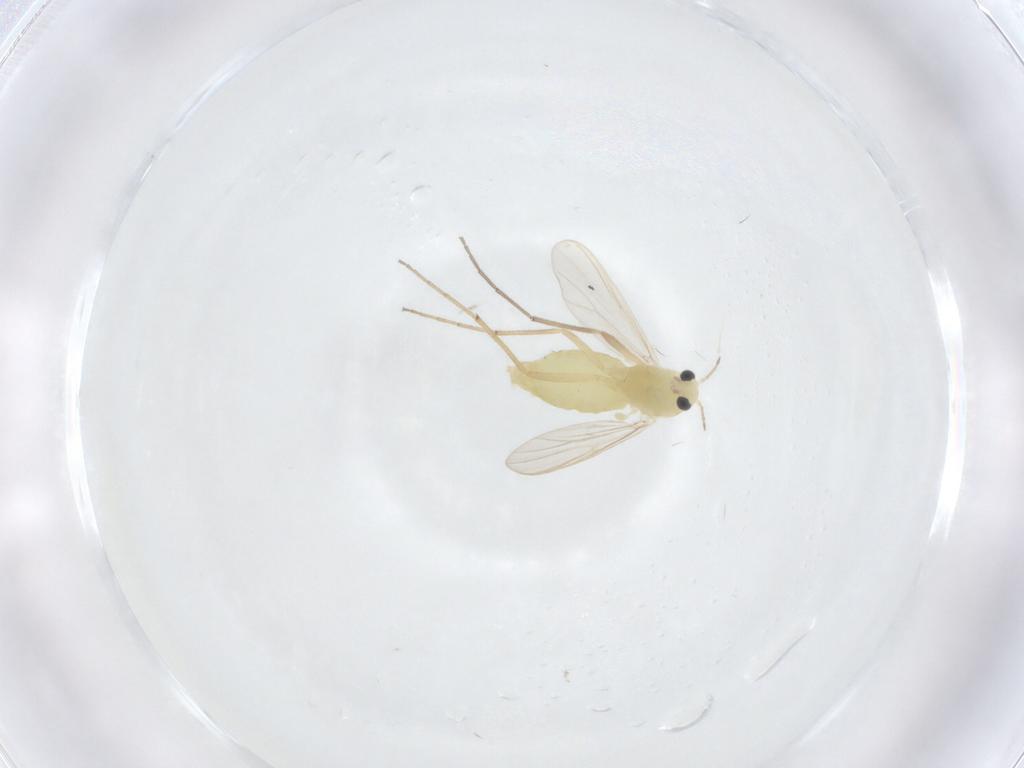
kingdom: Animalia
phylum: Arthropoda
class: Insecta
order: Diptera
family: Chironomidae
